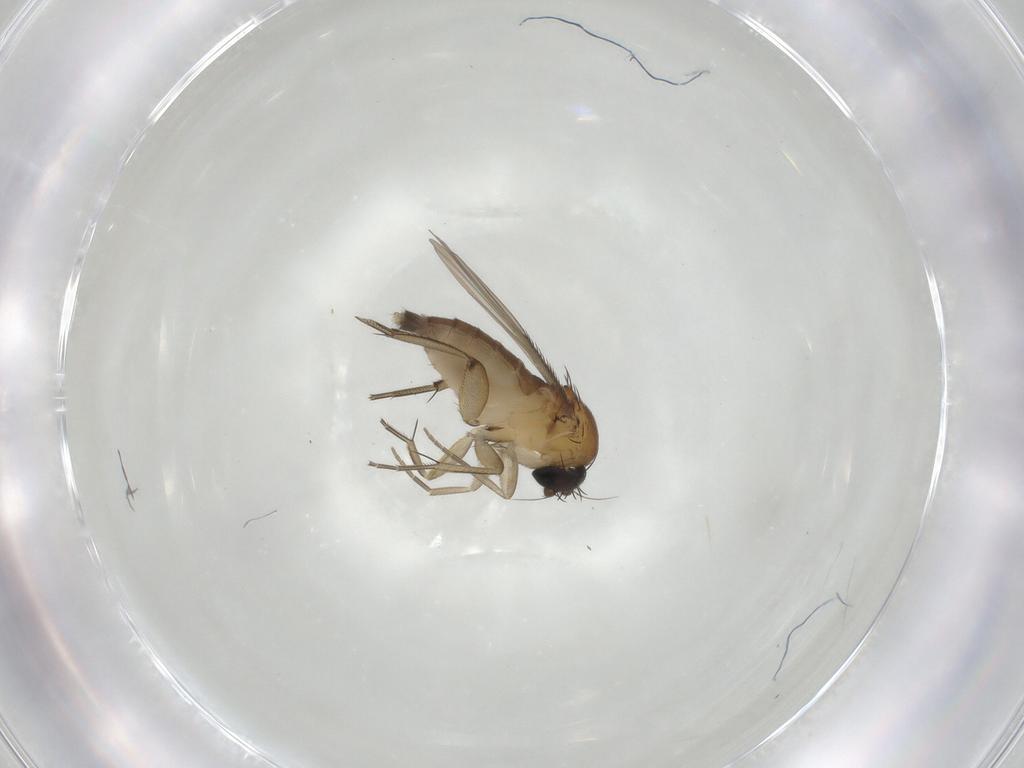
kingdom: Animalia
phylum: Arthropoda
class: Insecta
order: Diptera
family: Phoridae
